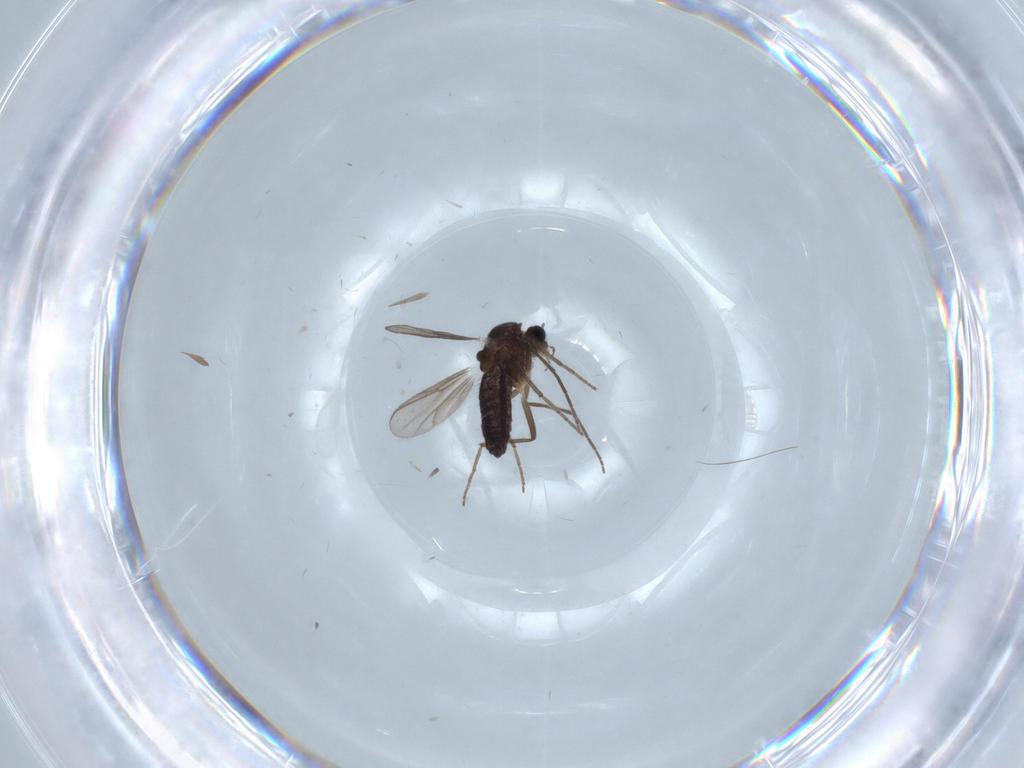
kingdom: Animalia
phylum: Arthropoda
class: Insecta
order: Diptera
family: Chironomidae
